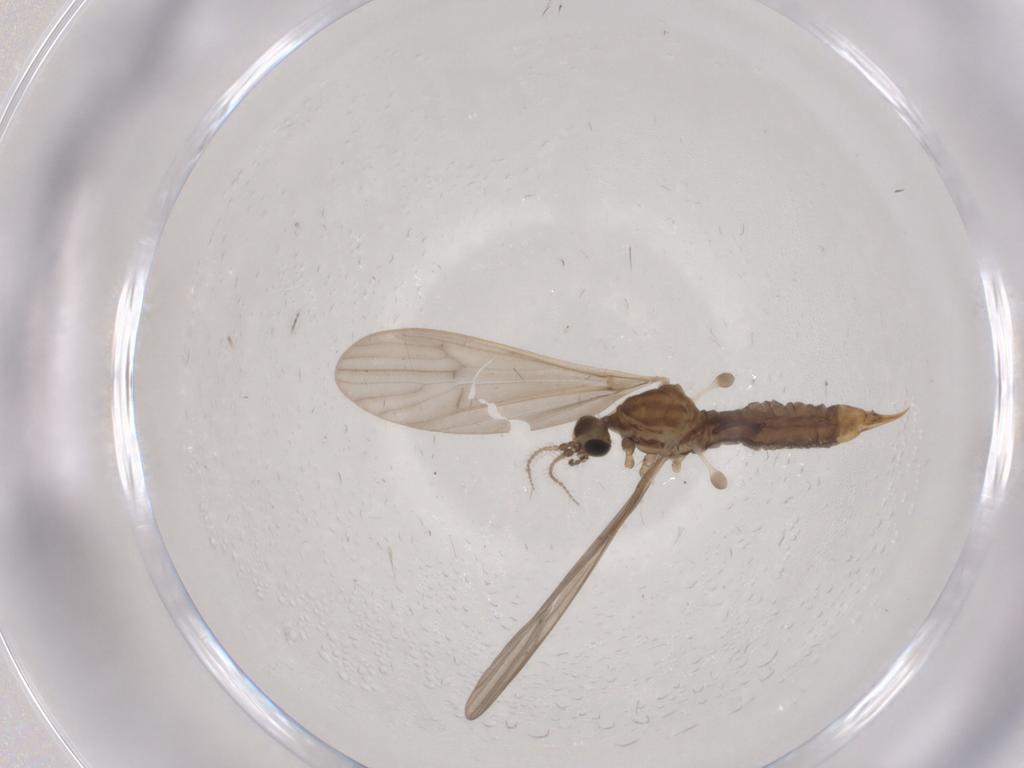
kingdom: Animalia
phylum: Arthropoda
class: Insecta
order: Diptera
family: Limoniidae
